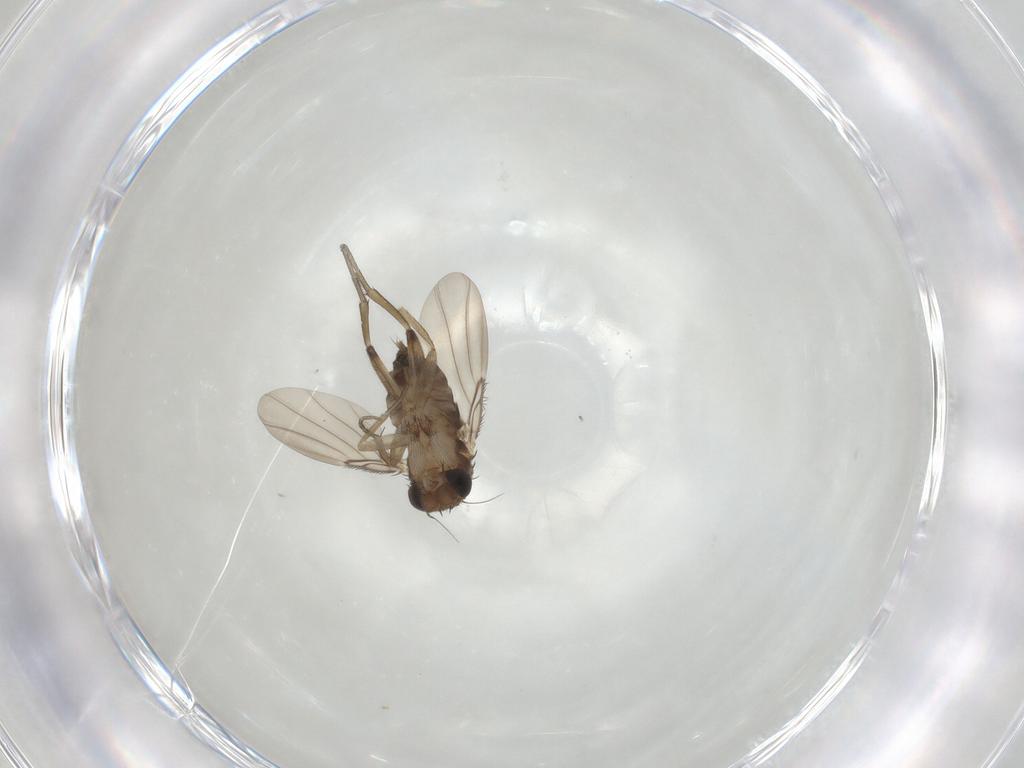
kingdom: Animalia
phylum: Arthropoda
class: Insecta
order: Diptera
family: Phoridae
